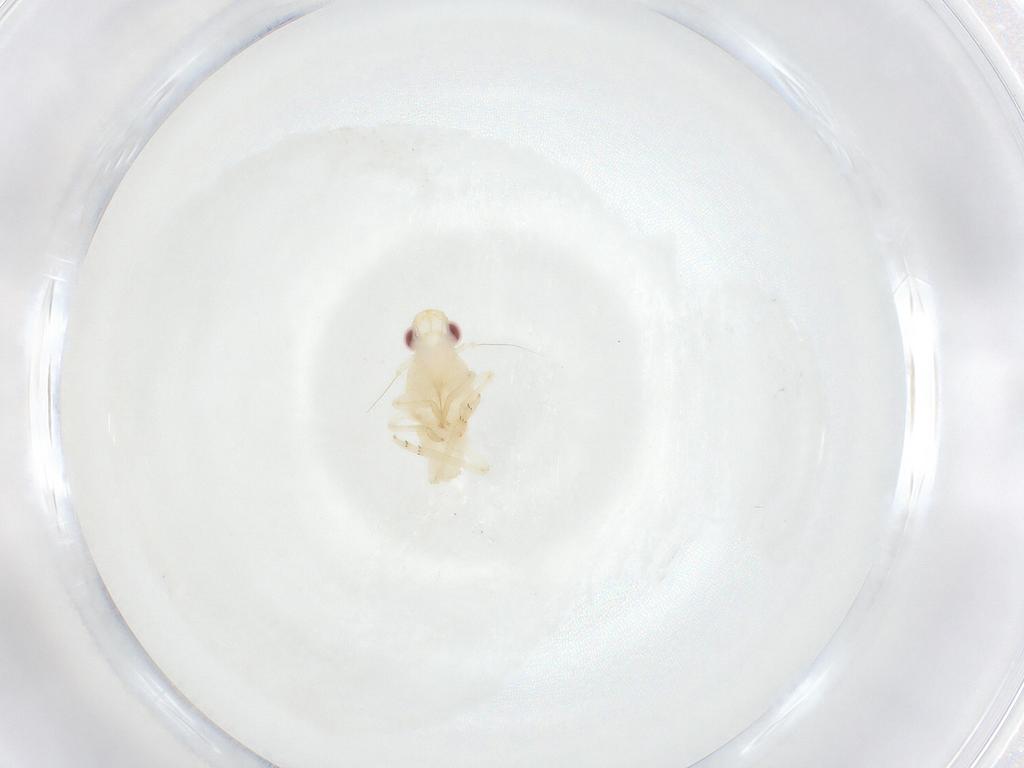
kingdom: Animalia
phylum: Arthropoda
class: Insecta
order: Hemiptera
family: Fulgoroidea_incertae_sedis
